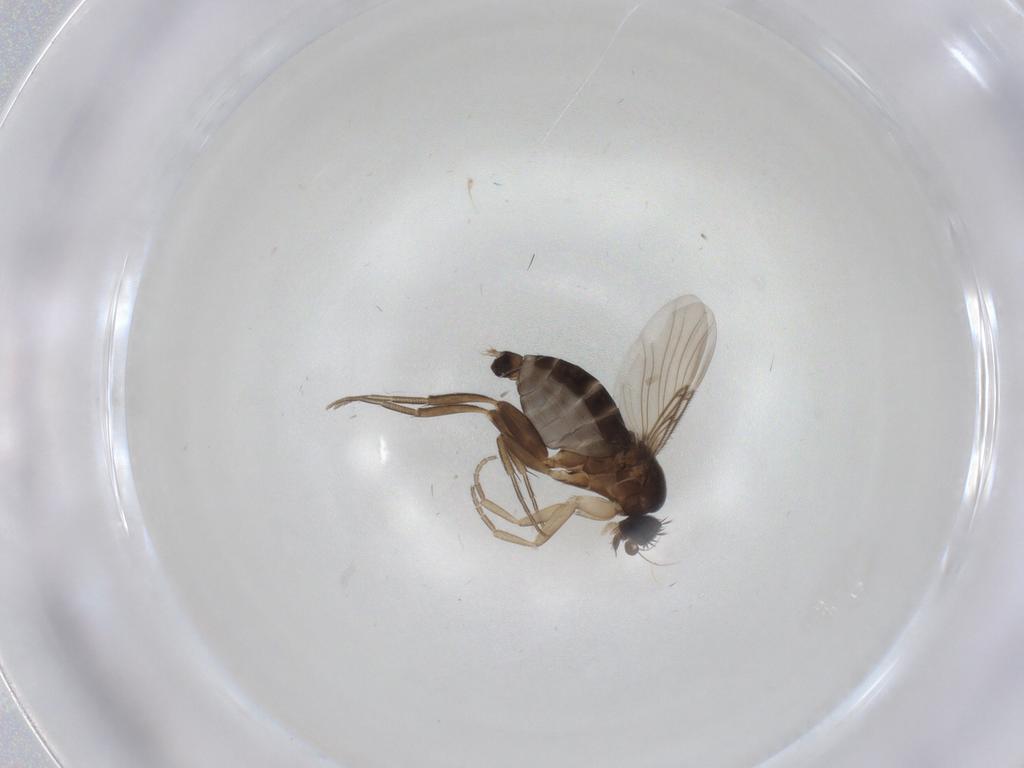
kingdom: Animalia
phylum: Arthropoda
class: Insecta
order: Diptera
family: Phoridae
